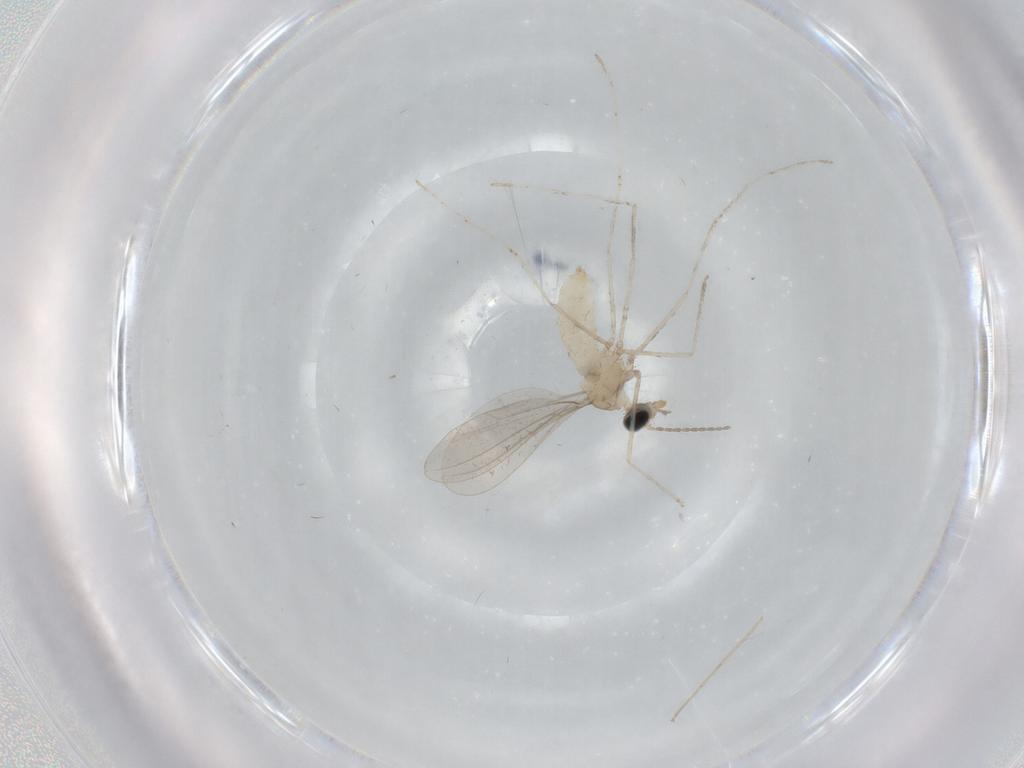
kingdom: Animalia
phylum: Arthropoda
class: Insecta
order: Diptera
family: Cecidomyiidae
